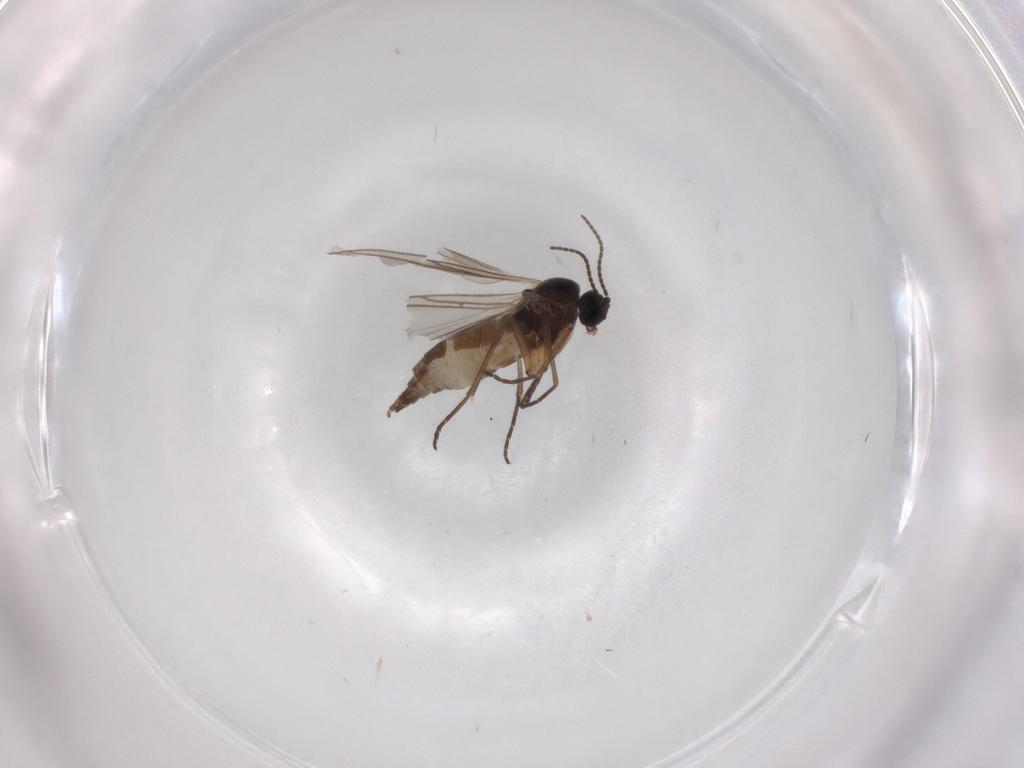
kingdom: Animalia
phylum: Arthropoda
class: Insecta
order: Diptera
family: Sciaridae
